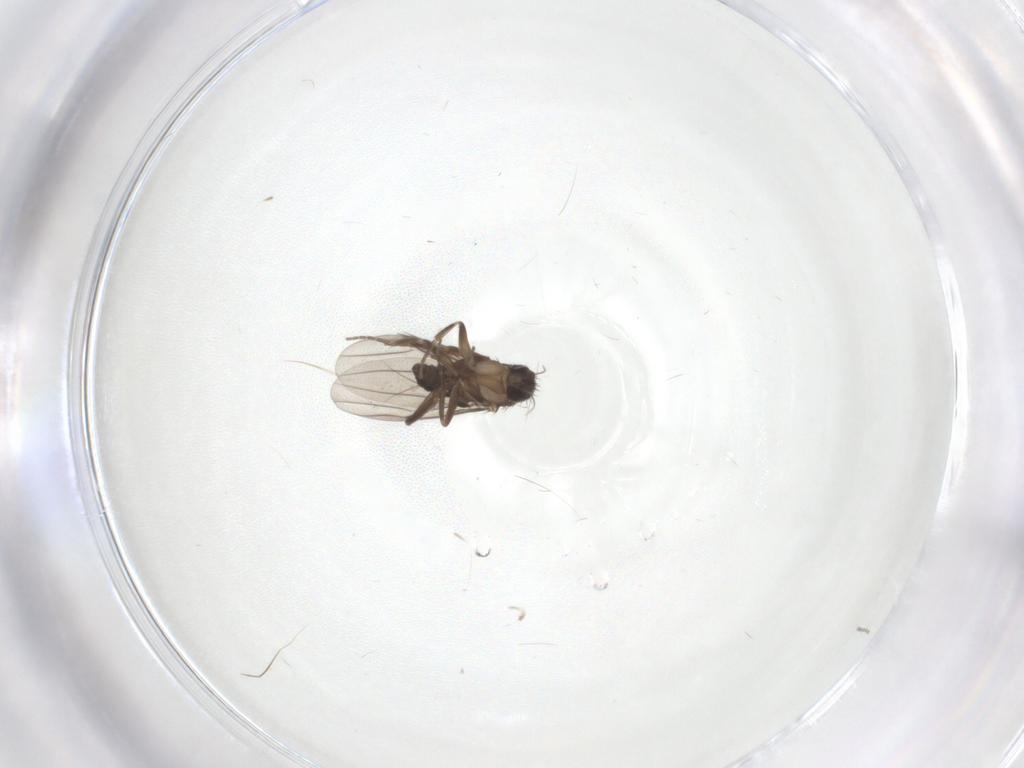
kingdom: Animalia
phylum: Arthropoda
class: Insecta
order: Diptera
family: Cecidomyiidae
